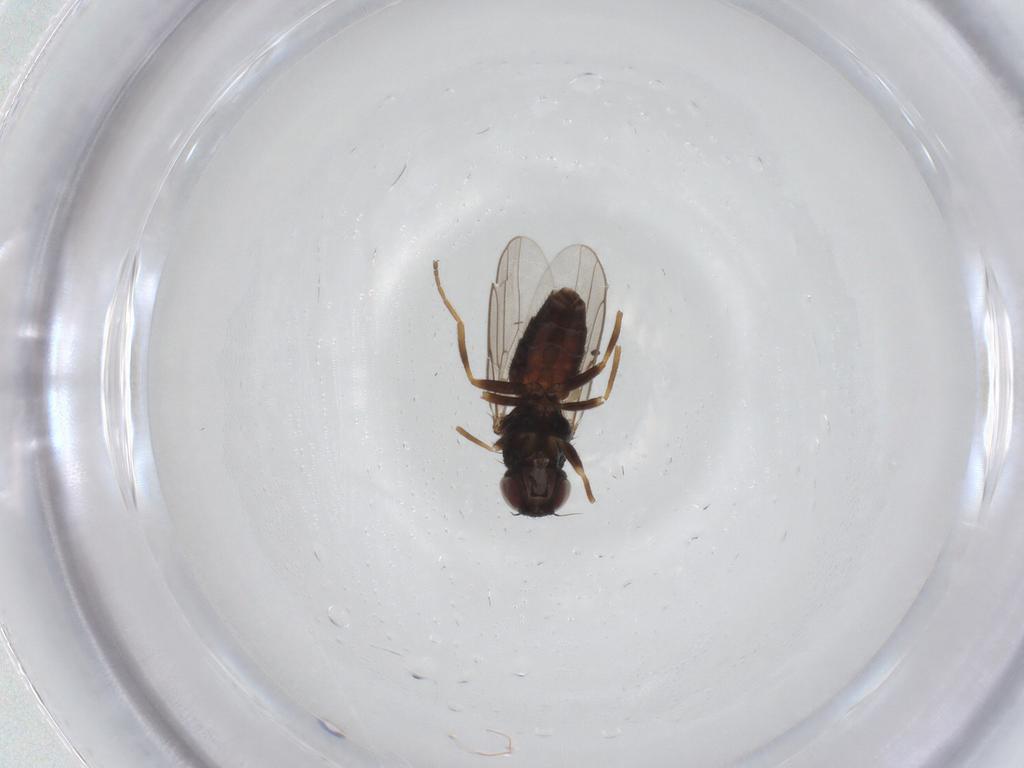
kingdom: Animalia
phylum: Arthropoda
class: Insecta
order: Diptera
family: Chloropidae
